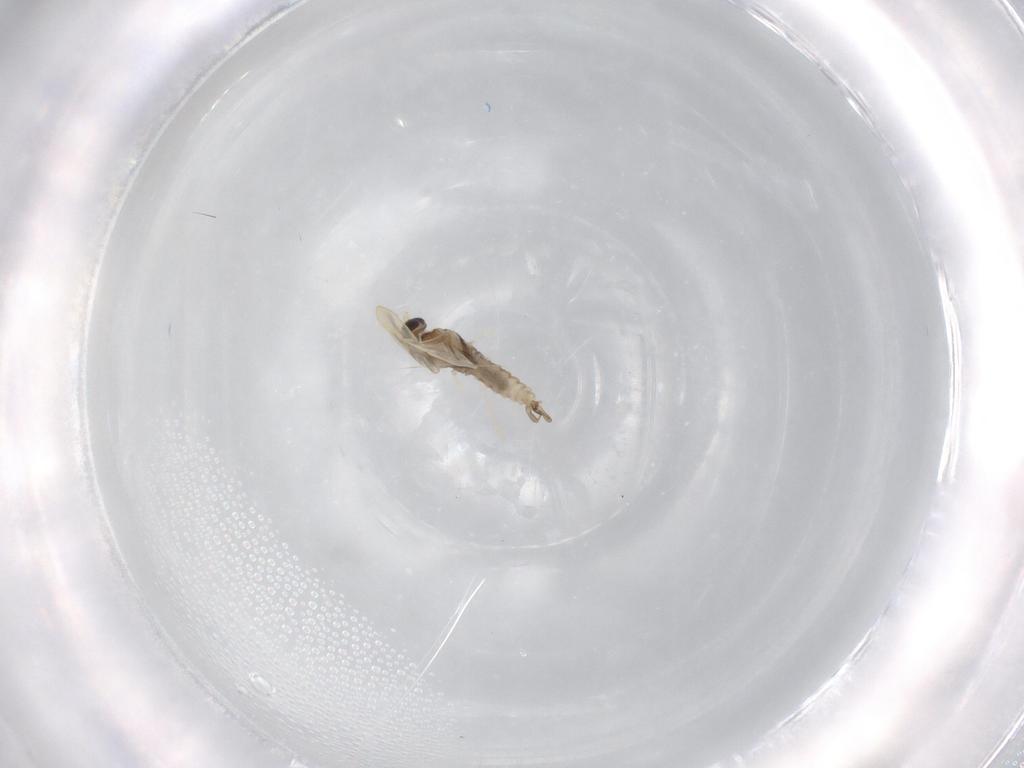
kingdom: Animalia
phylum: Arthropoda
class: Insecta
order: Diptera
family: Cecidomyiidae
